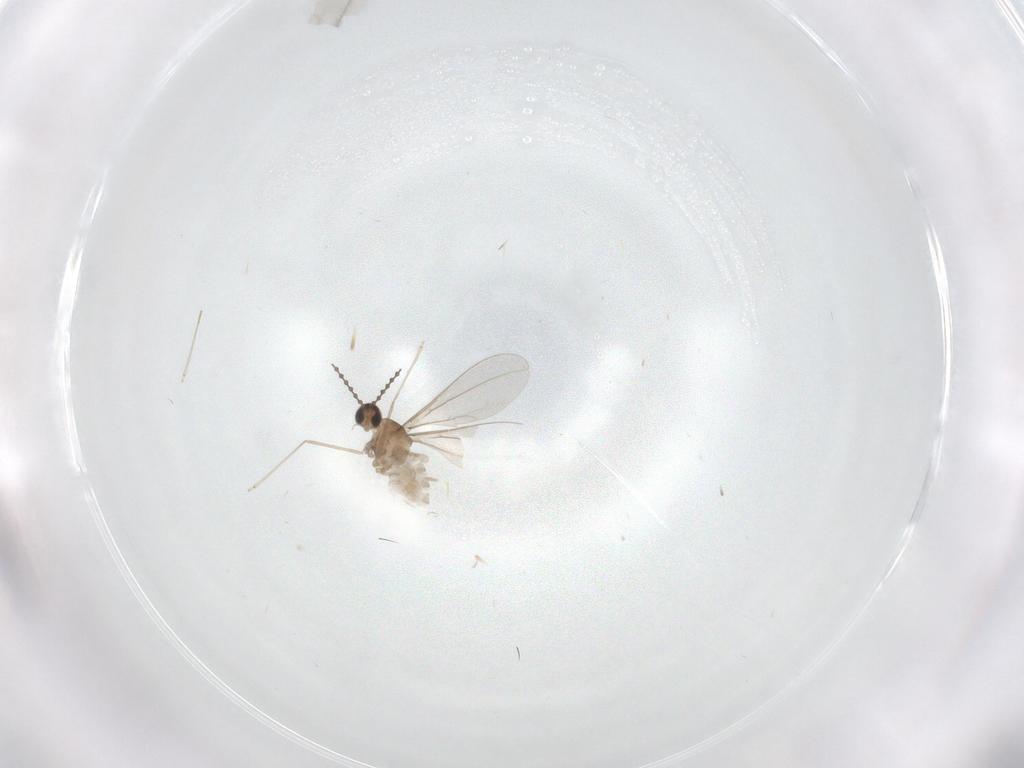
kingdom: Animalia
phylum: Arthropoda
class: Insecta
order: Diptera
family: Cecidomyiidae
